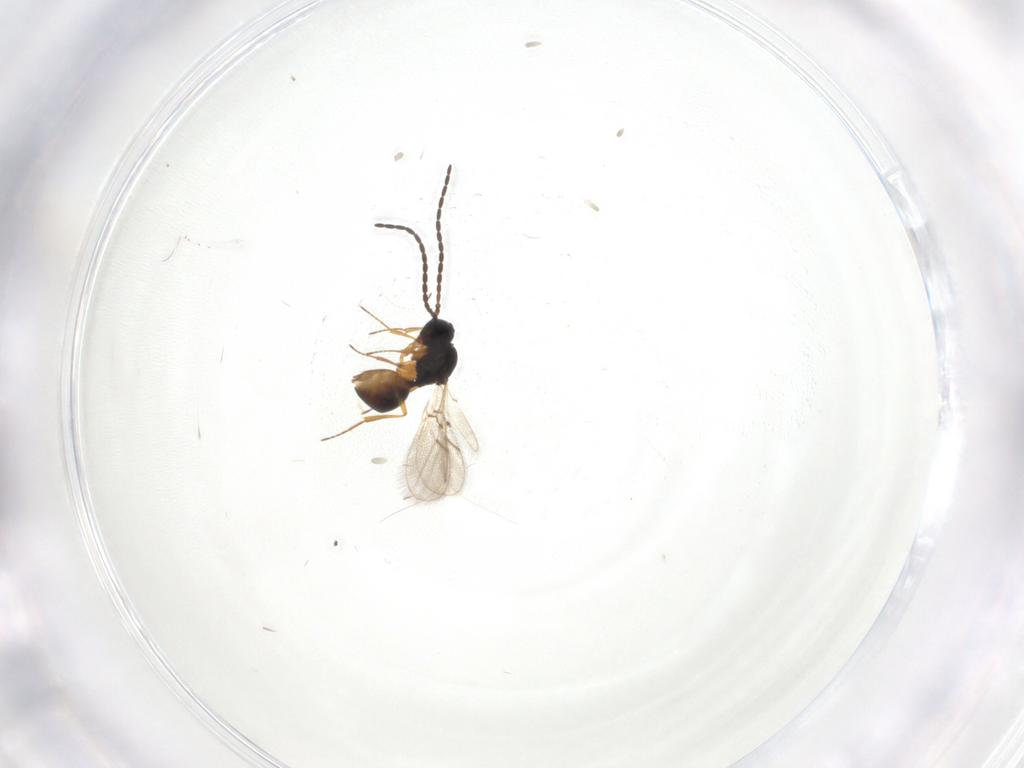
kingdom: Animalia
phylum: Arthropoda
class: Insecta
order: Hymenoptera
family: Figitidae
